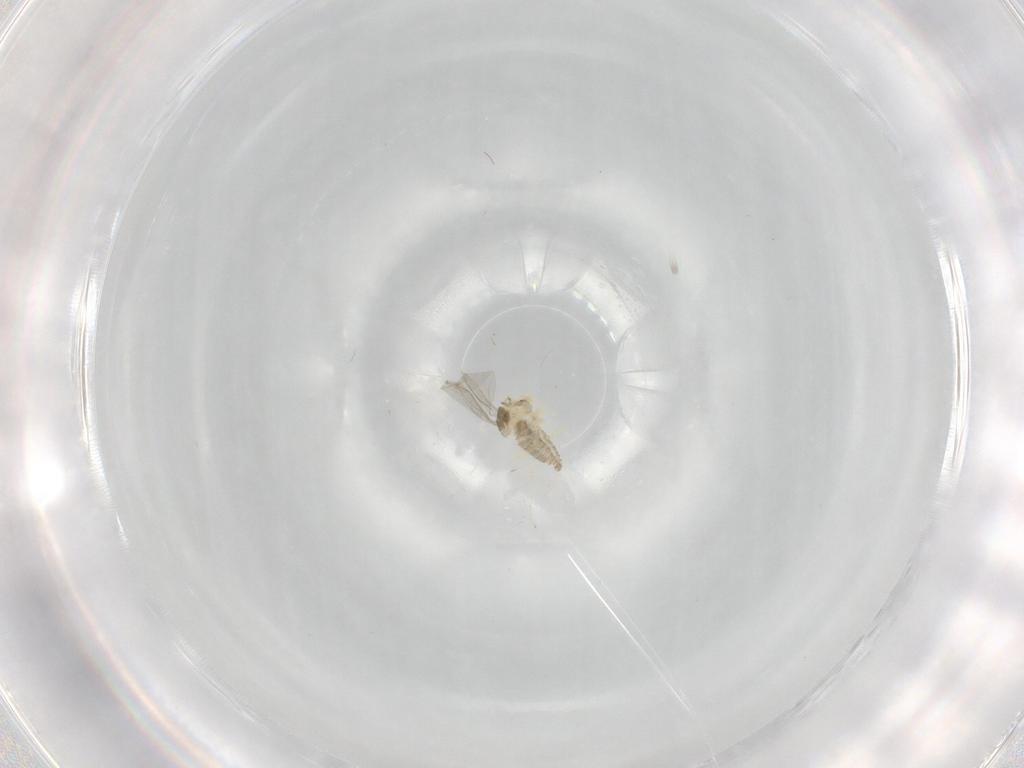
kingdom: Animalia
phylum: Arthropoda
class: Insecta
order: Diptera
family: Cecidomyiidae
